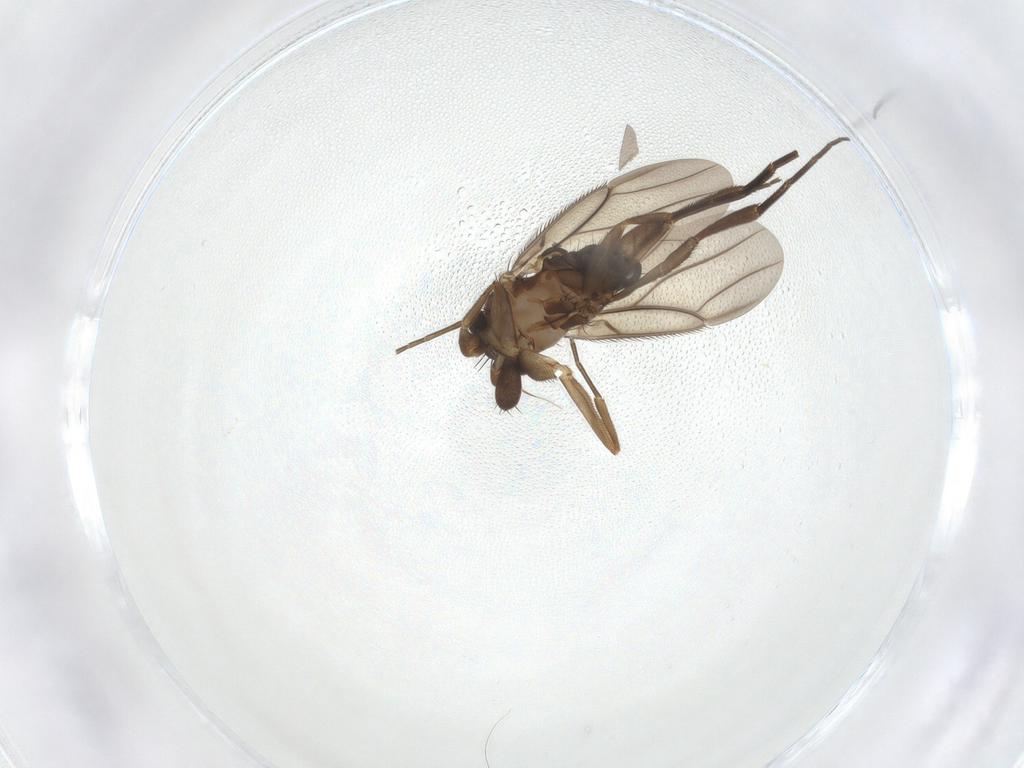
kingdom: Animalia
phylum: Arthropoda
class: Insecta
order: Diptera
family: Phoridae
